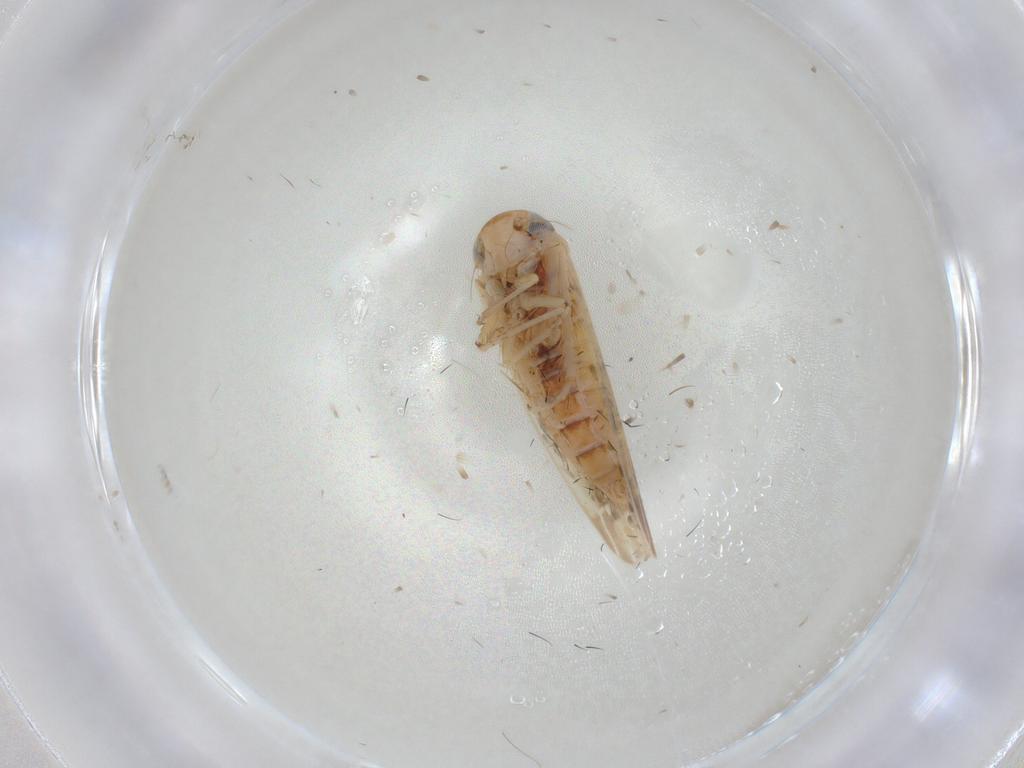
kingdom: Animalia
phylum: Arthropoda
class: Insecta
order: Hemiptera
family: Cicadellidae
